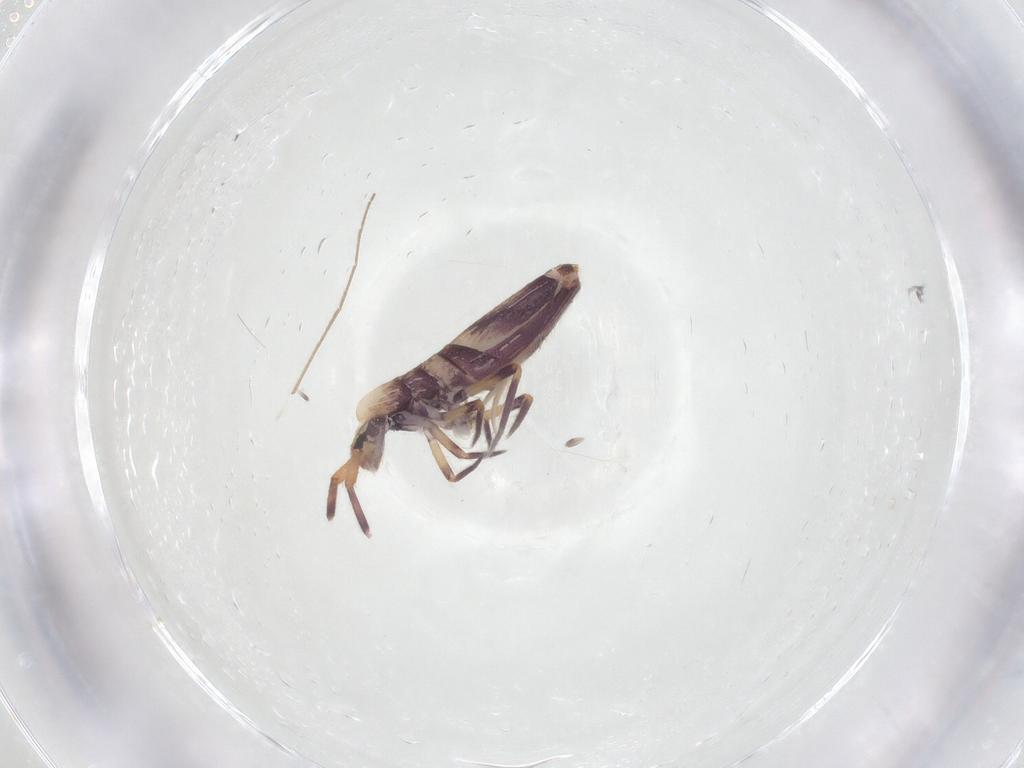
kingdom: Animalia
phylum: Arthropoda
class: Collembola
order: Entomobryomorpha
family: Entomobryidae
